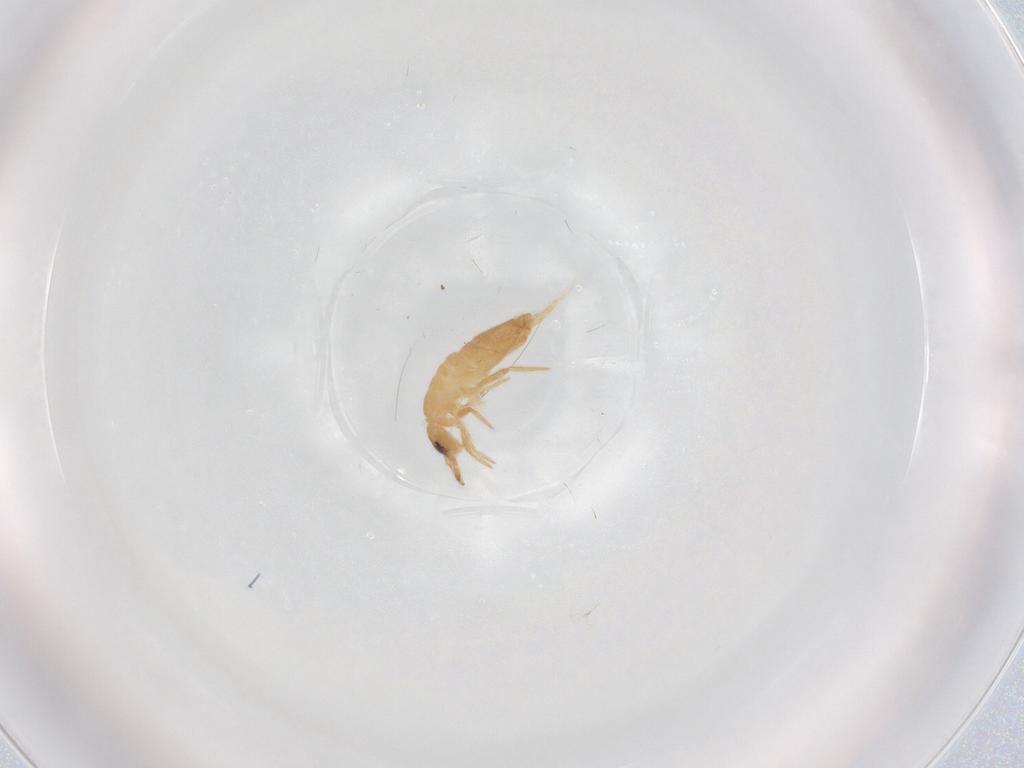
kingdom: Animalia
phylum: Arthropoda
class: Collembola
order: Entomobryomorpha
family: Entomobryidae
